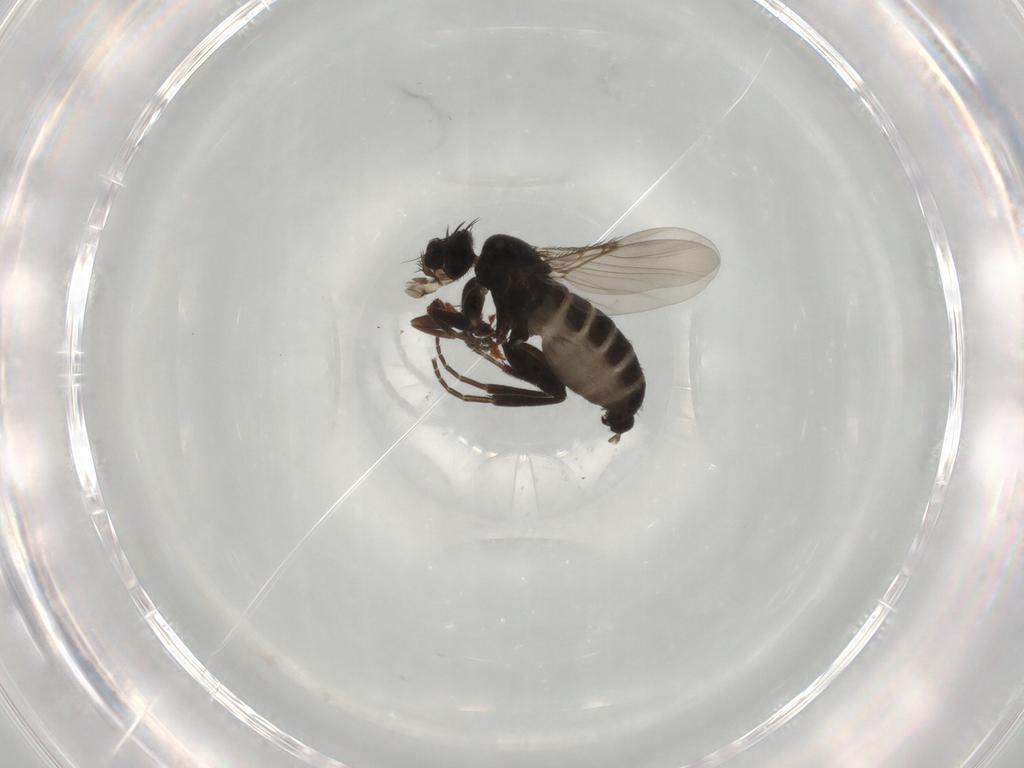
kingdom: Animalia
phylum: Arthropoda
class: Insecta
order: Diptera
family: Phoridae
